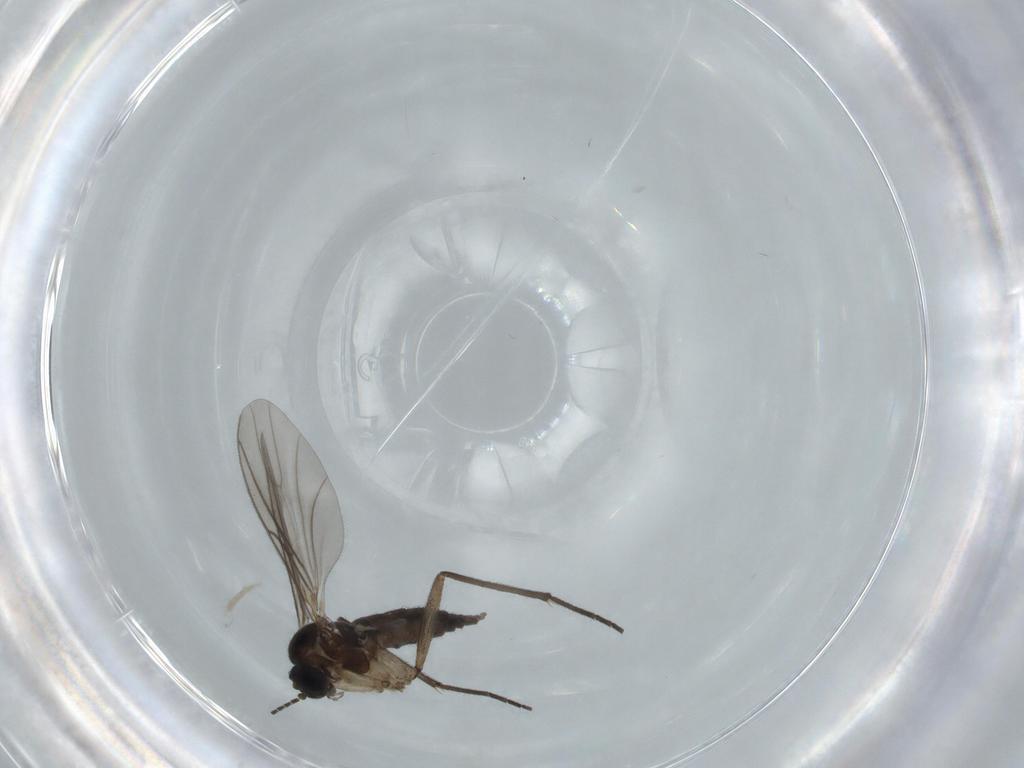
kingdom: Animalia
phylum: Arthropoda
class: Insecta
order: Diptera
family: Sciaridae
